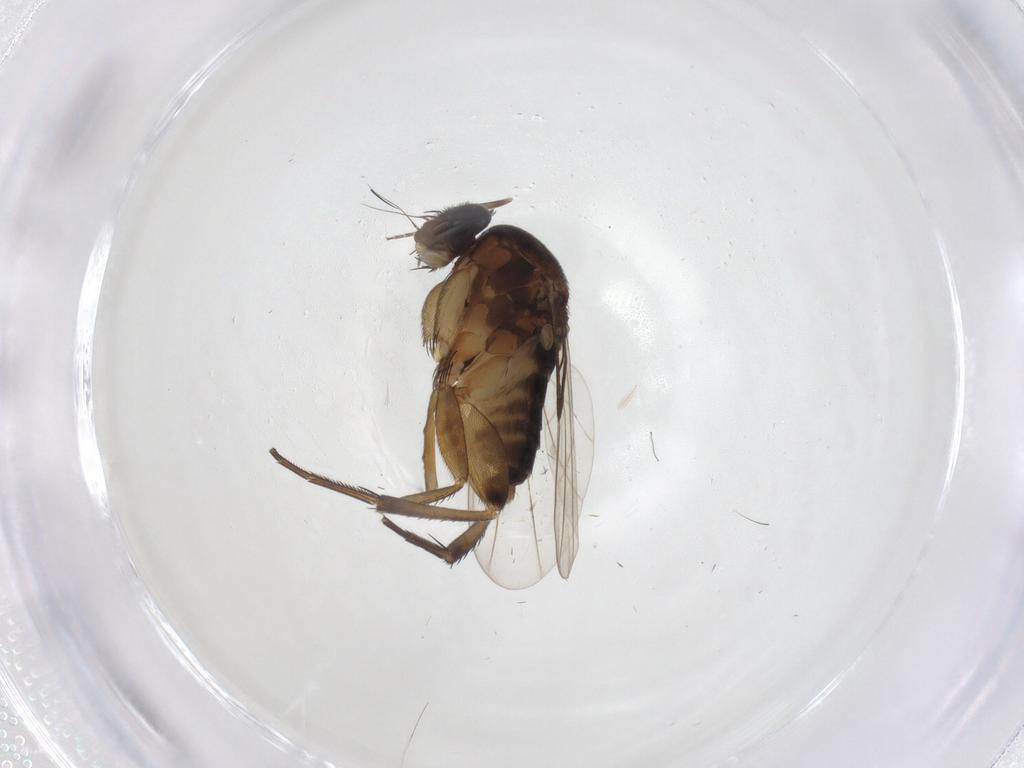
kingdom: Animalia
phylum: Arthropoda
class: Insecta
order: Diptera
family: Phoridae
